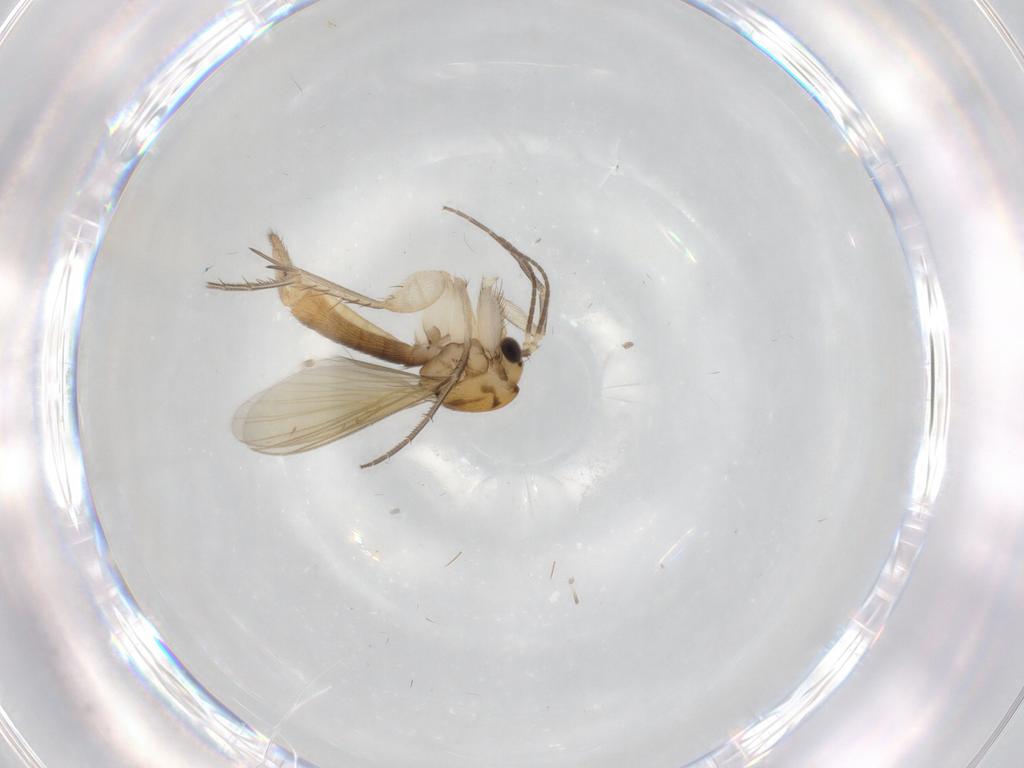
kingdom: Animalia
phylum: Arthropoda
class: Insecta
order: Diptera
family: Mycetophilidae
